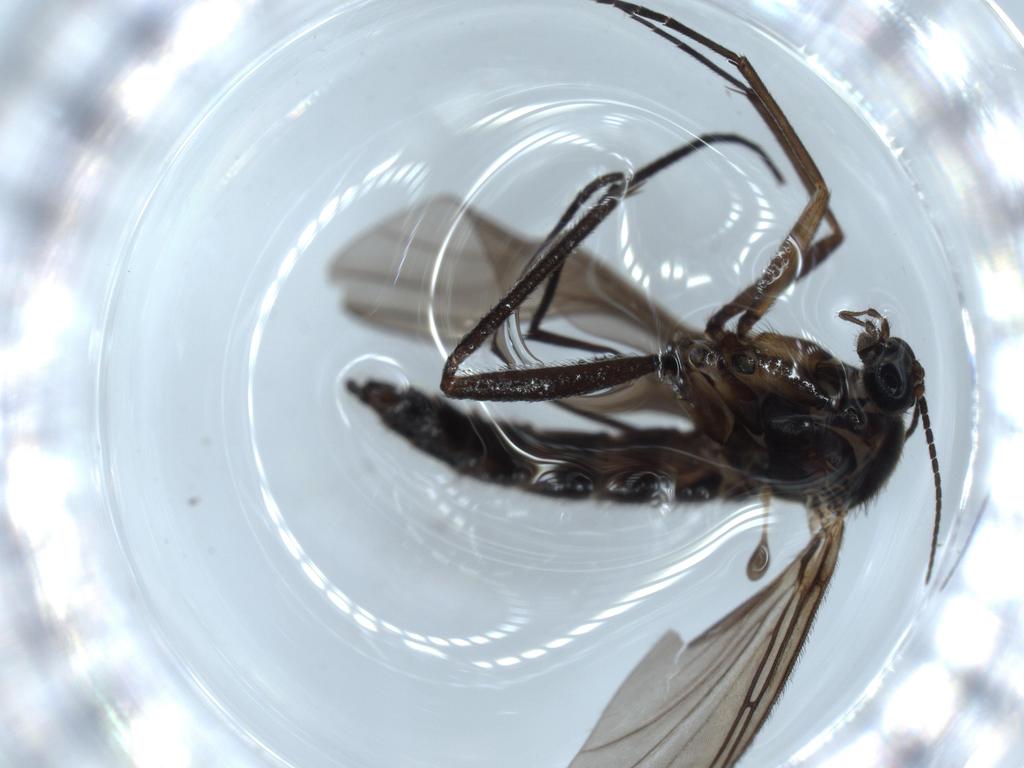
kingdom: Animalia
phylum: Arthropoda
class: Insecta
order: Diptera
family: Sciaridae
